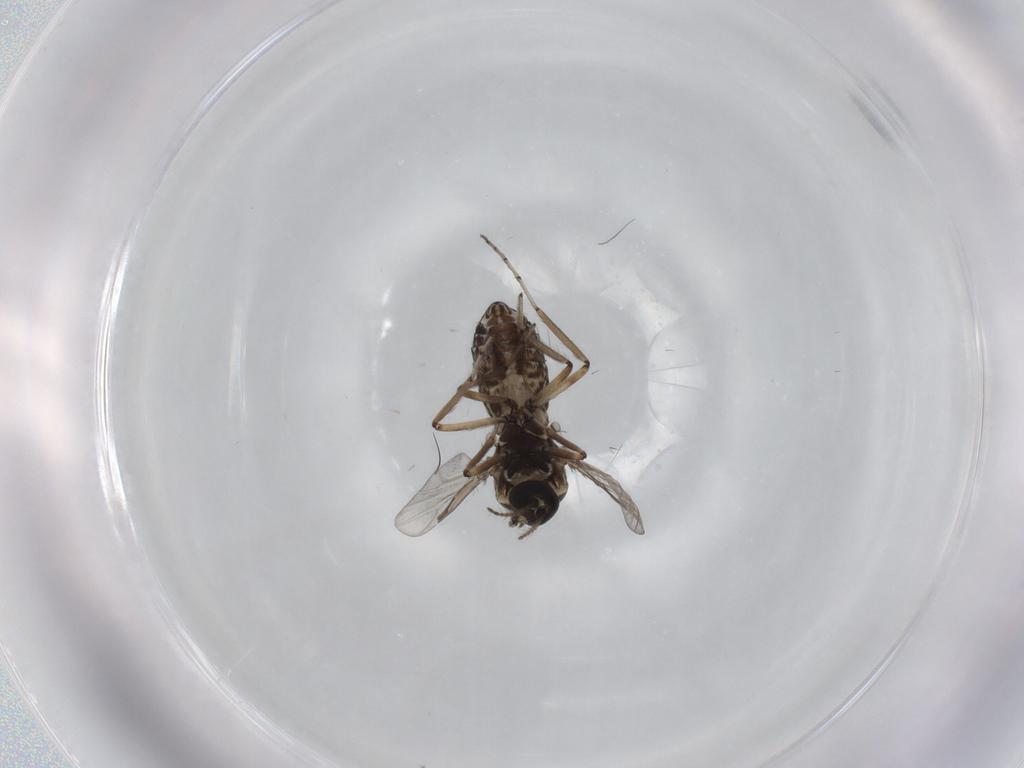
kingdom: Animalia
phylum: Arthropoda
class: Insecta
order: Diptera
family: Ceratopogonidae
